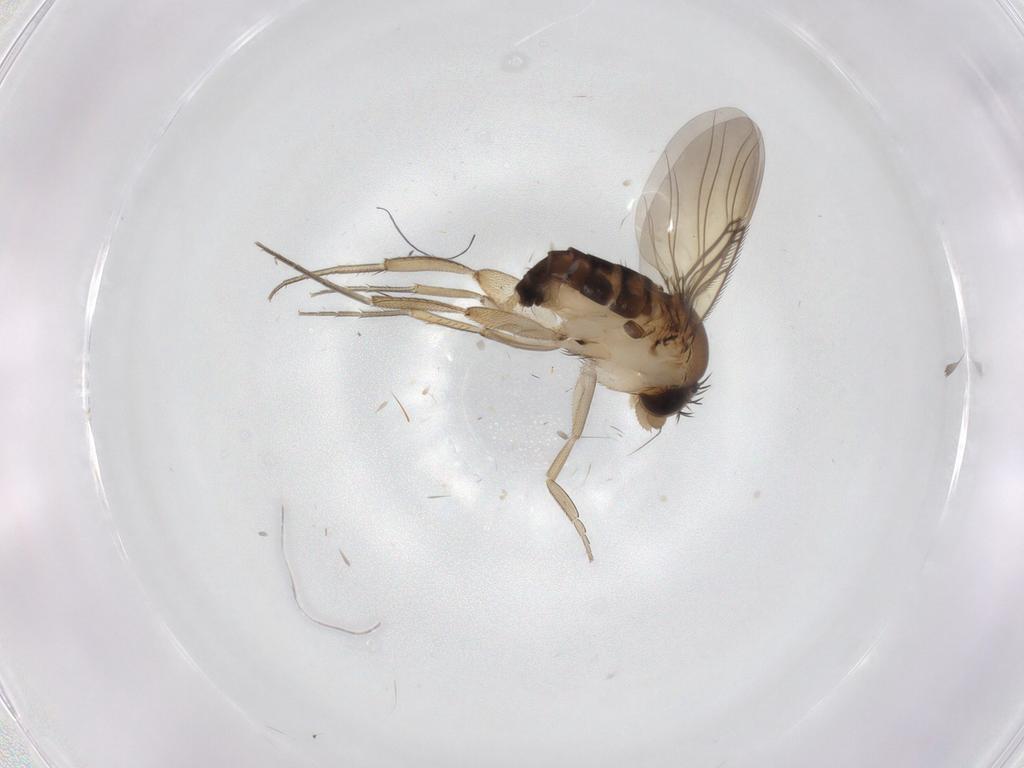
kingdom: Animalia
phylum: Arthropoda
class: Insecta
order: Diptera
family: Phoridae
